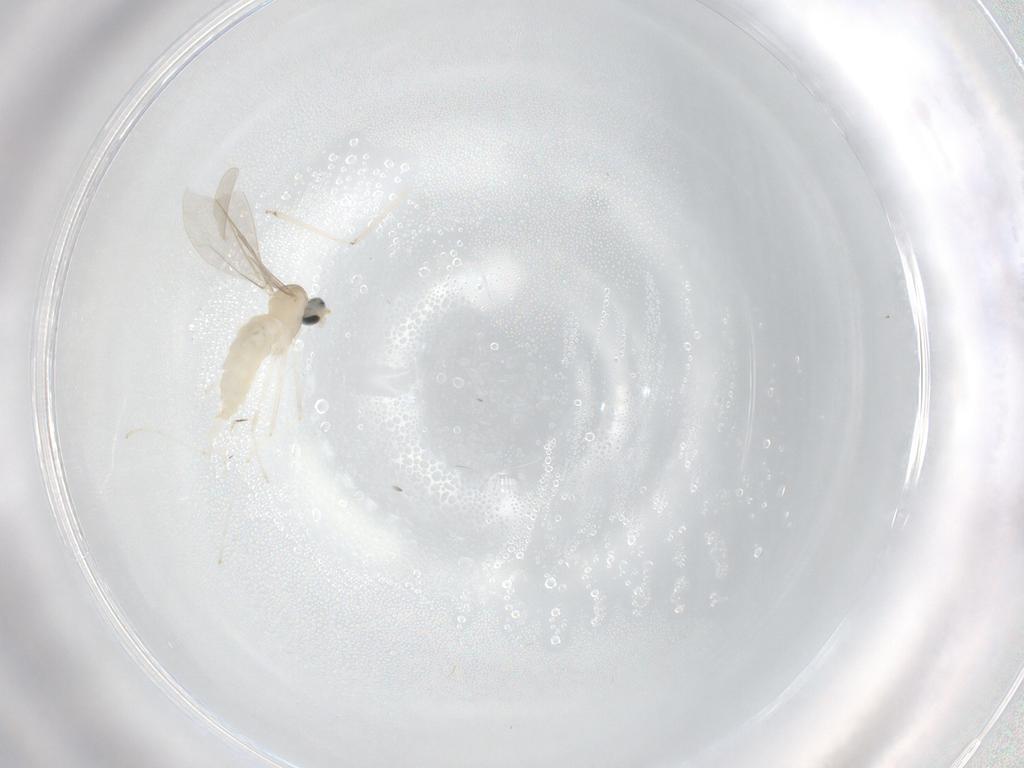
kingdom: Animalia
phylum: Arthropoda
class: Insecta
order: Diptera
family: Cecidomyiidae
